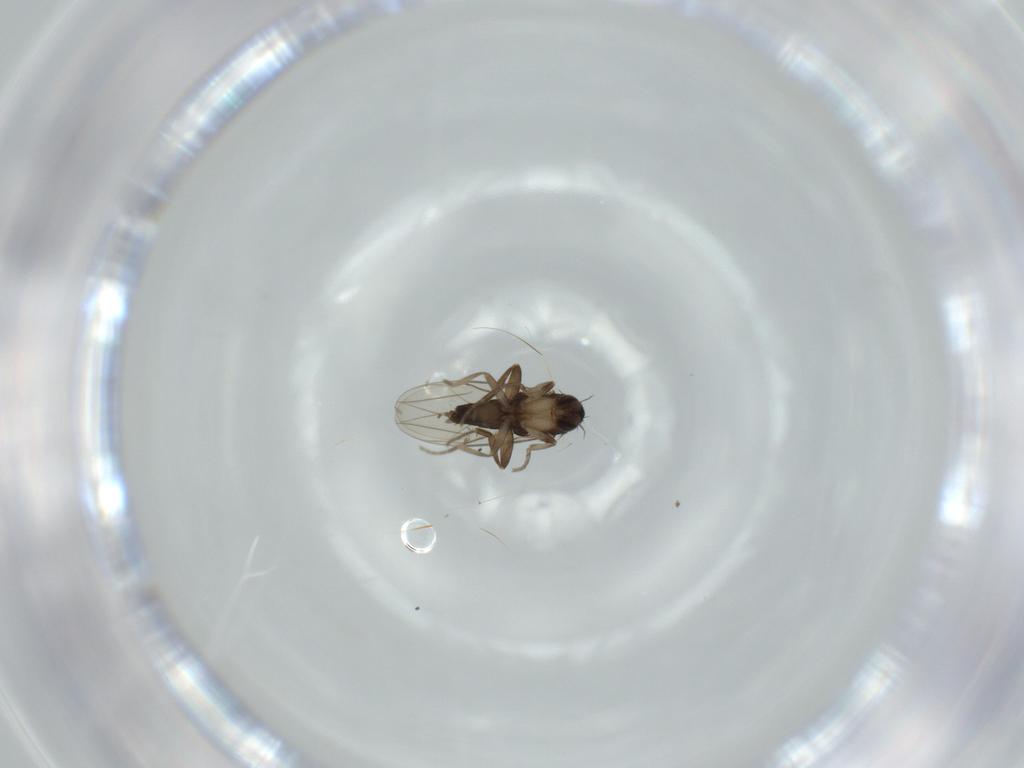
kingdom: Animalia
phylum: Arthropoda
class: Insecta
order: Diptera
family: Phoridae
